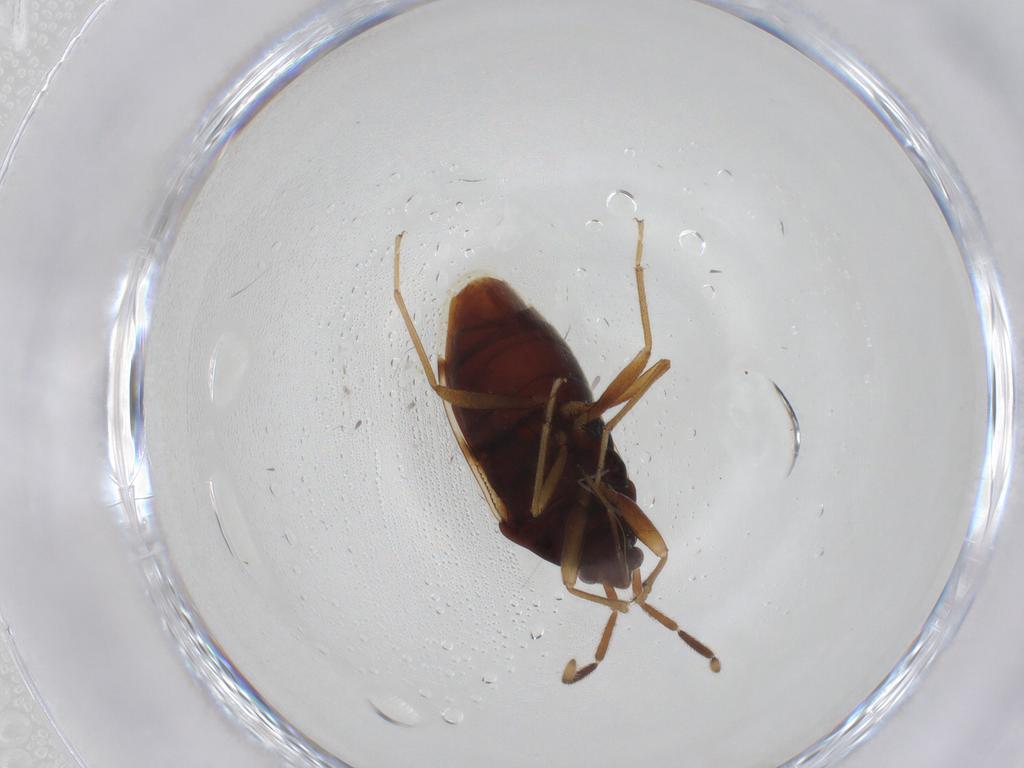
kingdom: Animalia
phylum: Arthropoda
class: Insecta
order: Hemiptera
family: Rhyparochromidae
